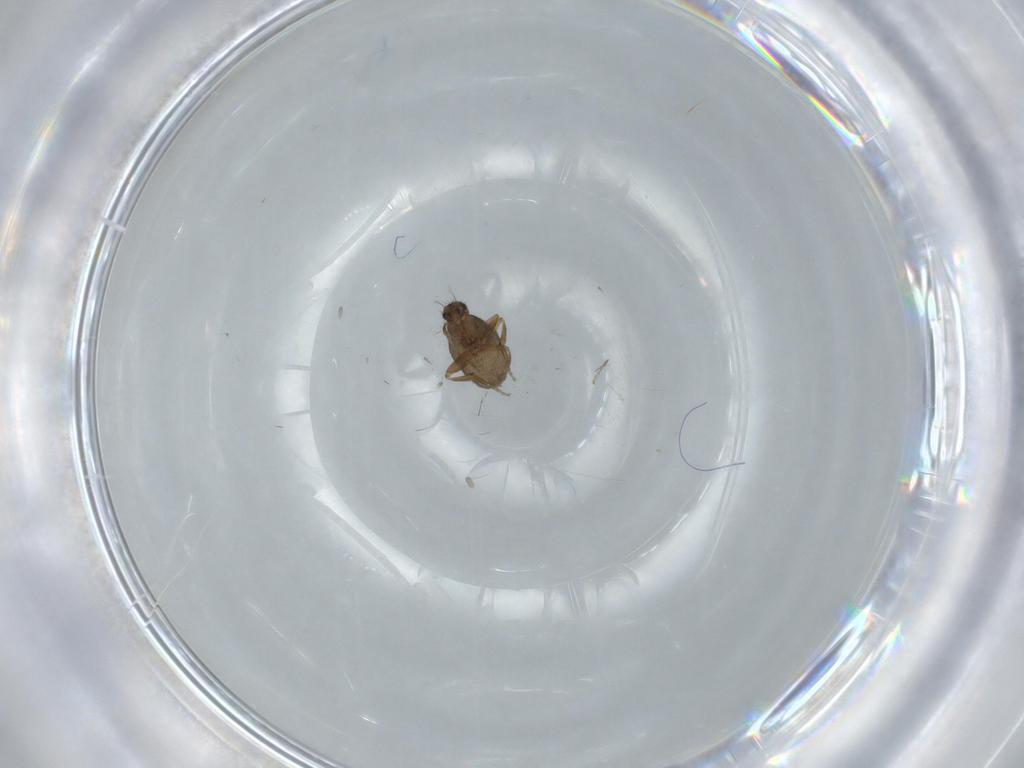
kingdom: Animalia
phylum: Arthropoda
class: Insecta
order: Diptera
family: Phoridae
